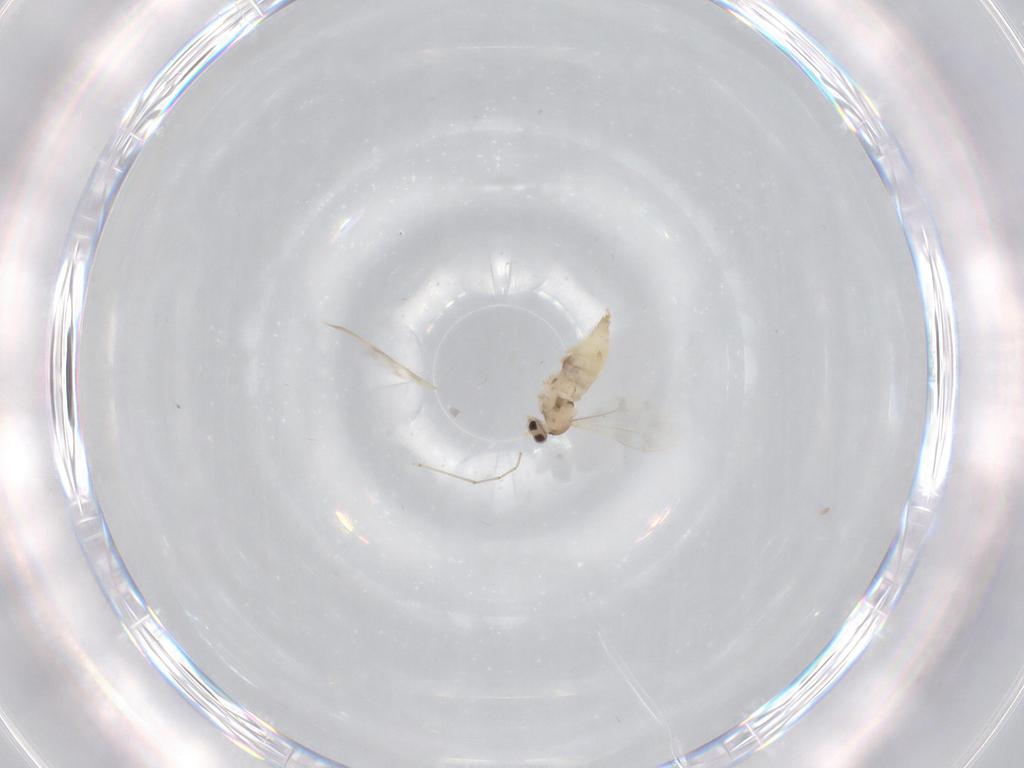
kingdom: Animalia
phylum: Arthropoda
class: Insecta
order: Diptera
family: Cecidomyiidae
